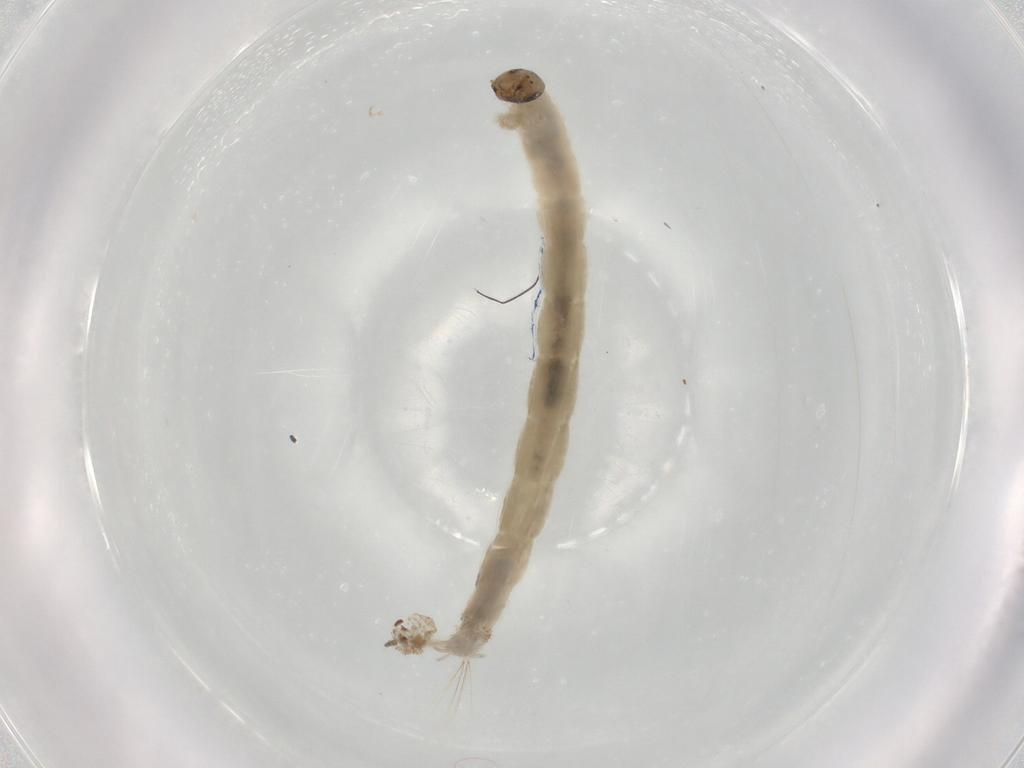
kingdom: Animalia
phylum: Arthropoda
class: Insecta
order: Diptera
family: Chironomidae
